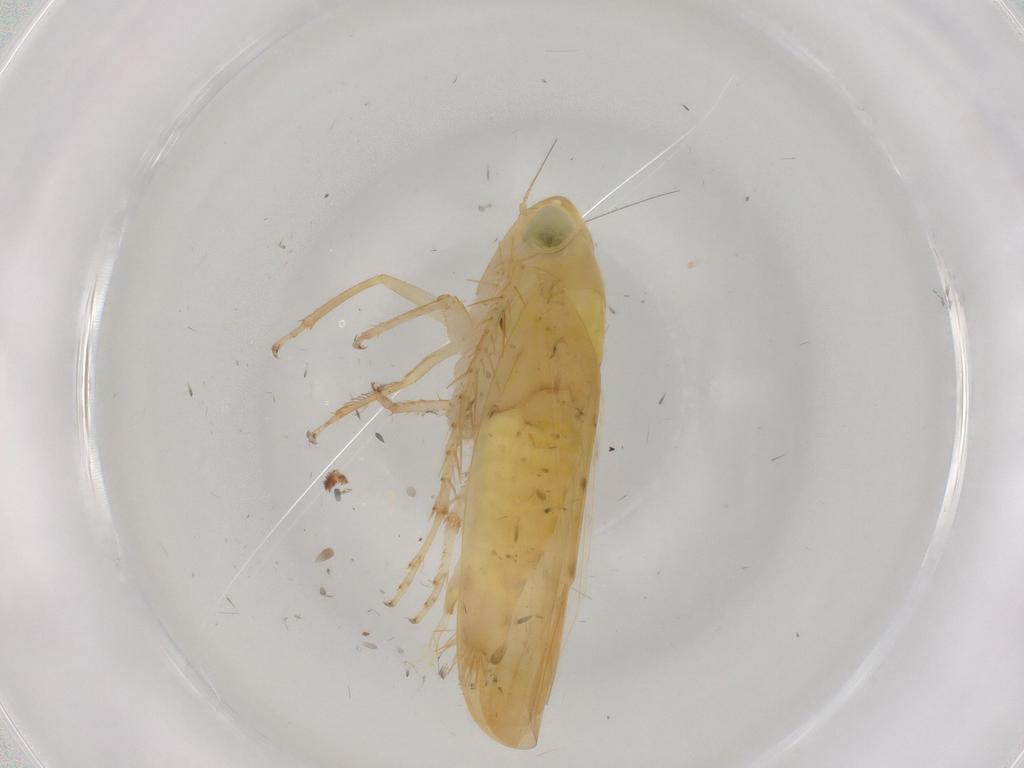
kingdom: Animalia
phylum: Arthropoda
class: Insecta
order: Hemiptera
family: Cicadellidae
